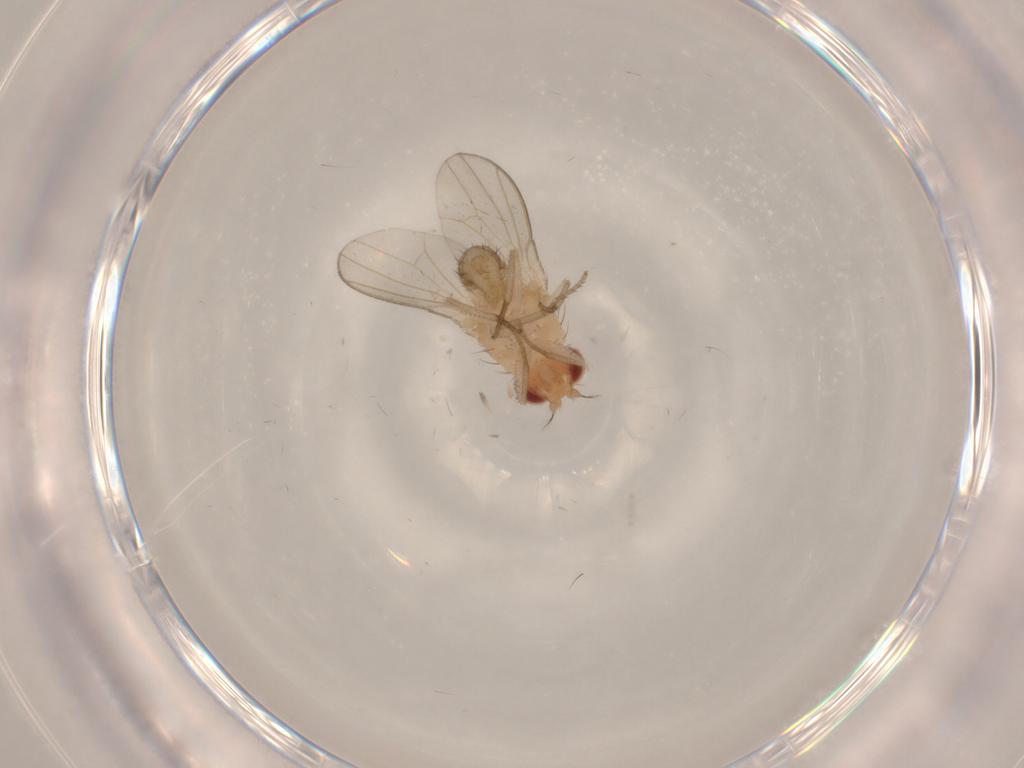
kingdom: Animalia
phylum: Arthropoda
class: Insecta
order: Diptera
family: Drosophilidae
